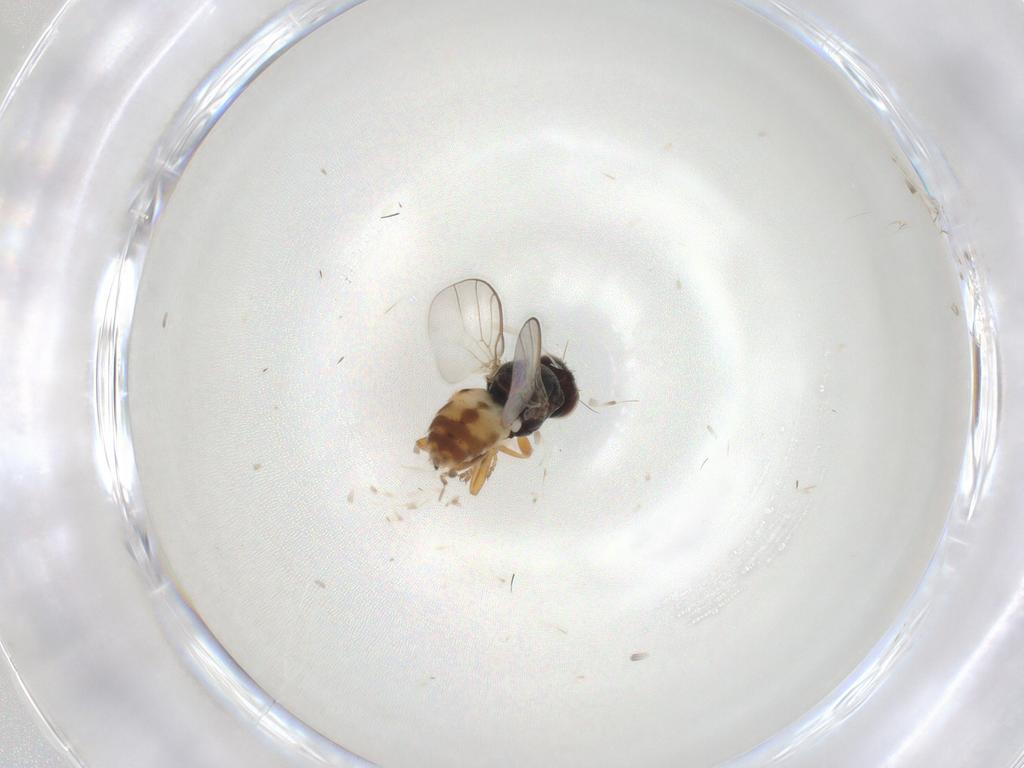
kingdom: Animalia
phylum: Arthropoda
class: Insecta
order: Diptera
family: Chloropidae
